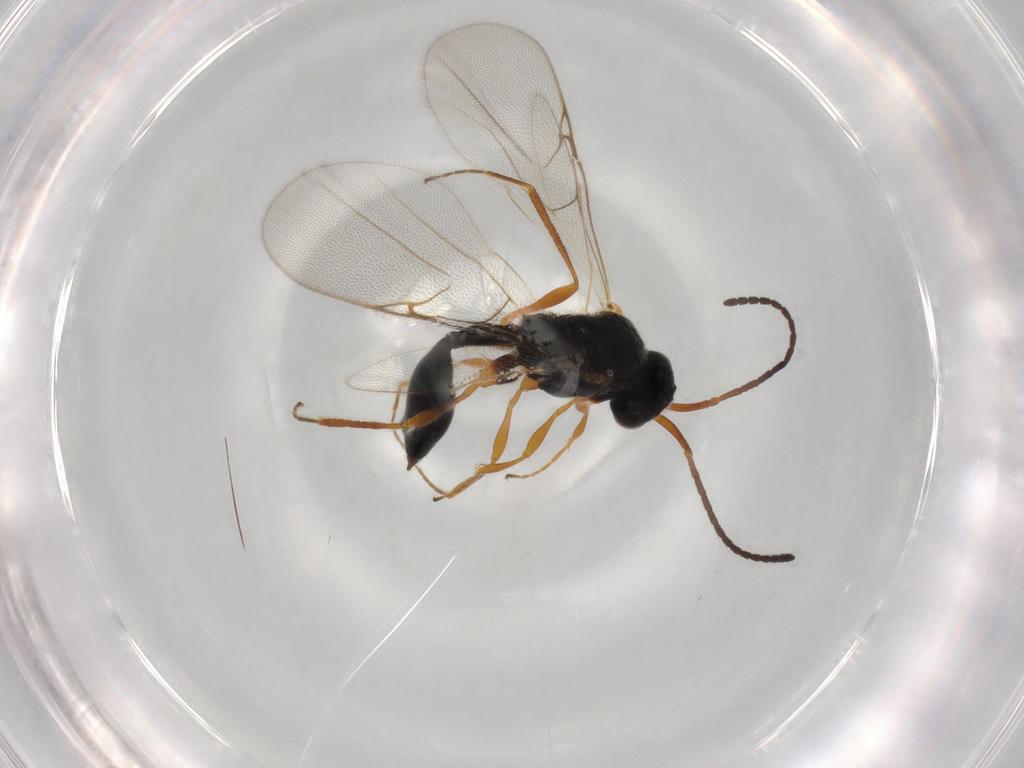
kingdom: Animalia
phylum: Arthropoda
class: Insecta
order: Hymenoptera
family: Diapriidae
